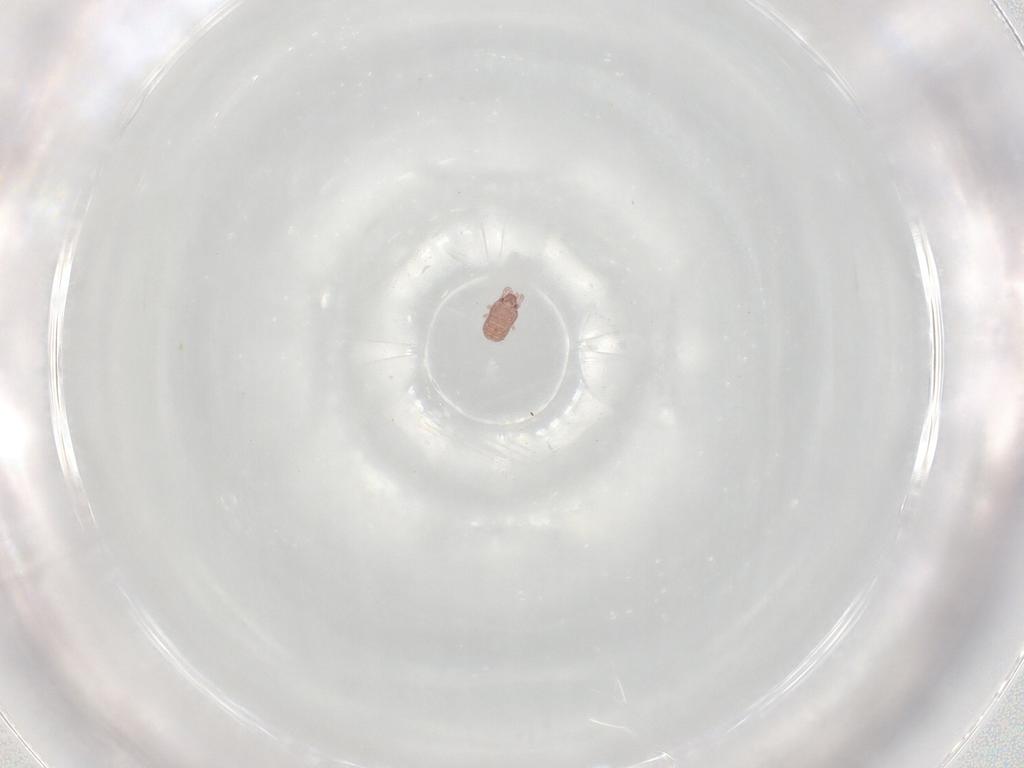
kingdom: Animalia
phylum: Arthropoda
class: Arachnida
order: Sarcoptiformes
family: Alycidae
